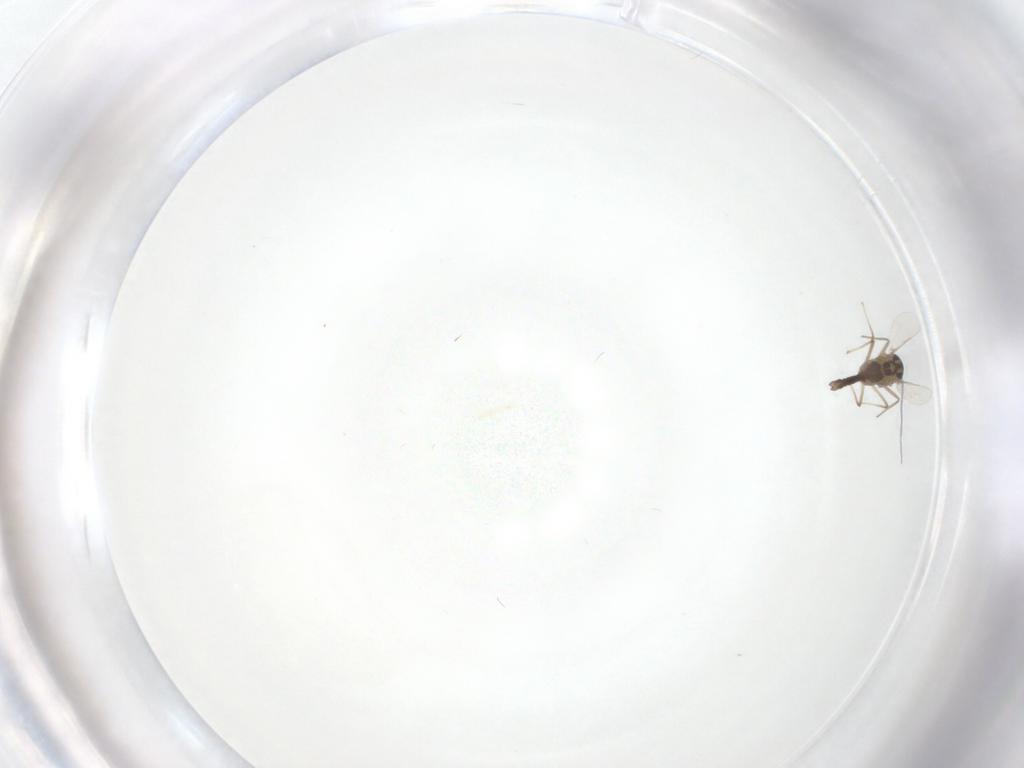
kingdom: Animalia
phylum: Arthropoda
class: Insecta
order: Diptera
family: Chironomidae
